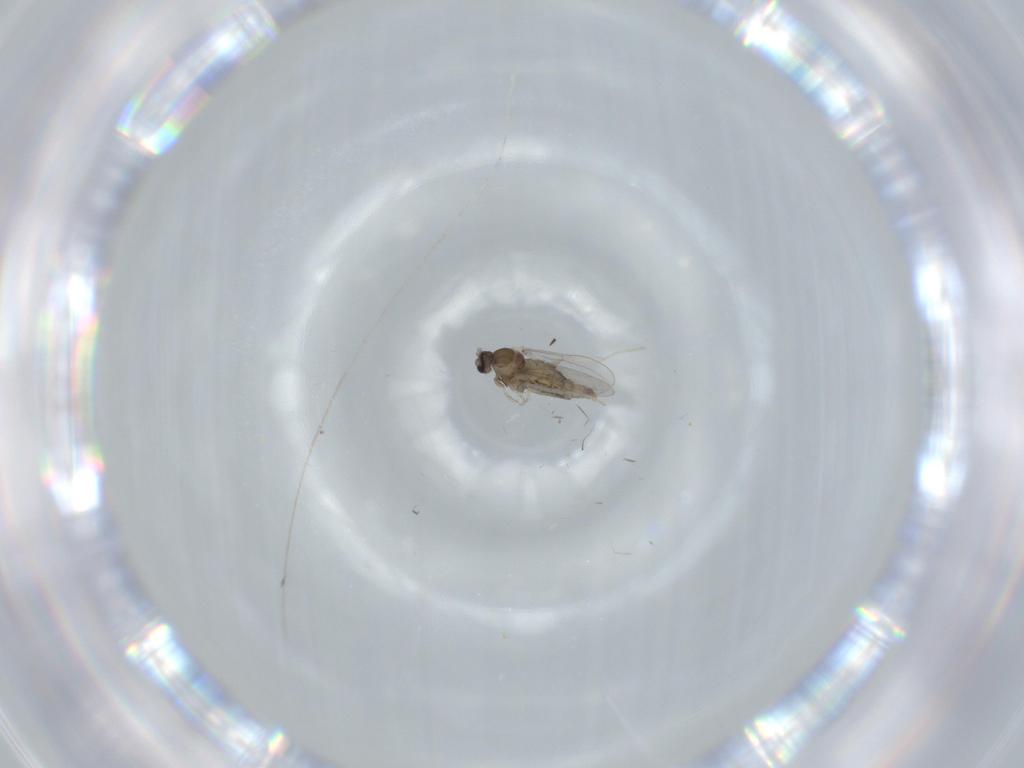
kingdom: Animalia
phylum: Arthropoda
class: Insecta
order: Diptera
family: Cecidomyiidae
